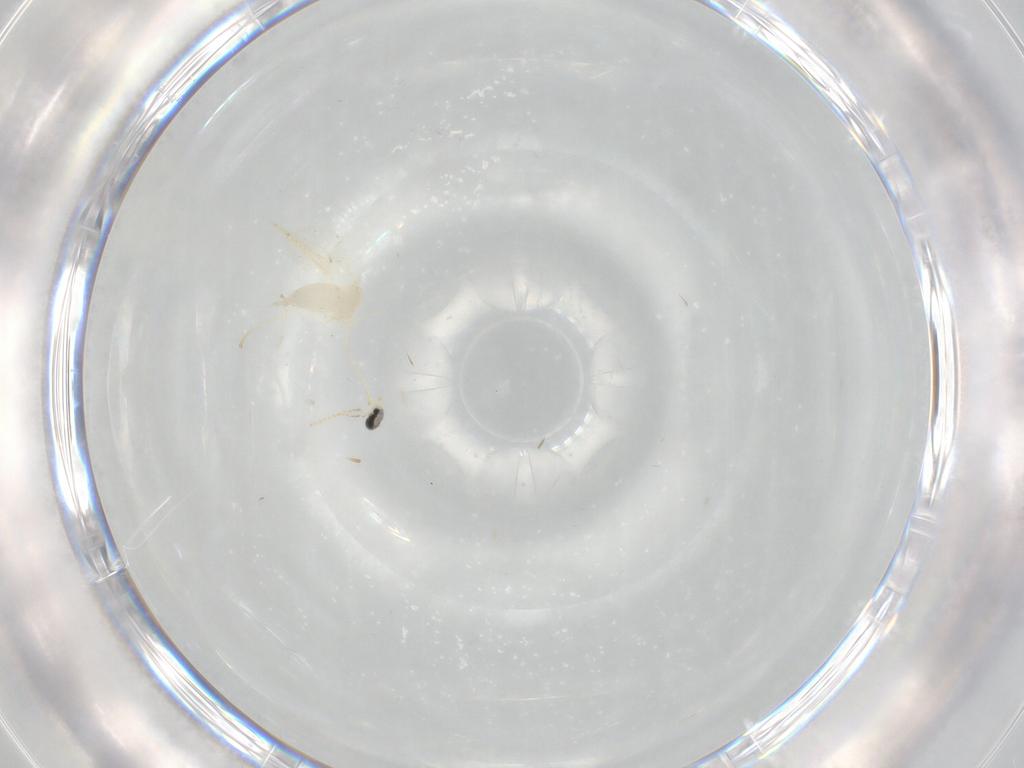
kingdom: Animalia
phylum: Arthropoda
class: Insecta
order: Diptera
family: Cecidomyiidae
